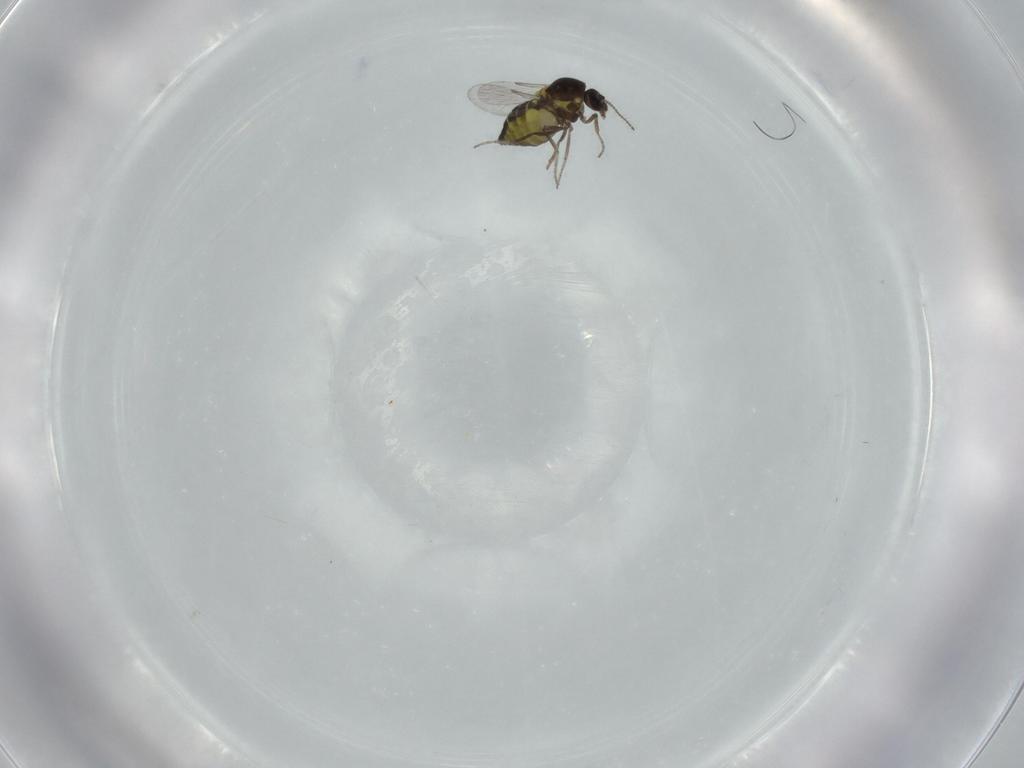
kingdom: Animalia
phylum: Arthropoda
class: Insecta
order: Diptera
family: Ceratopogonidae
